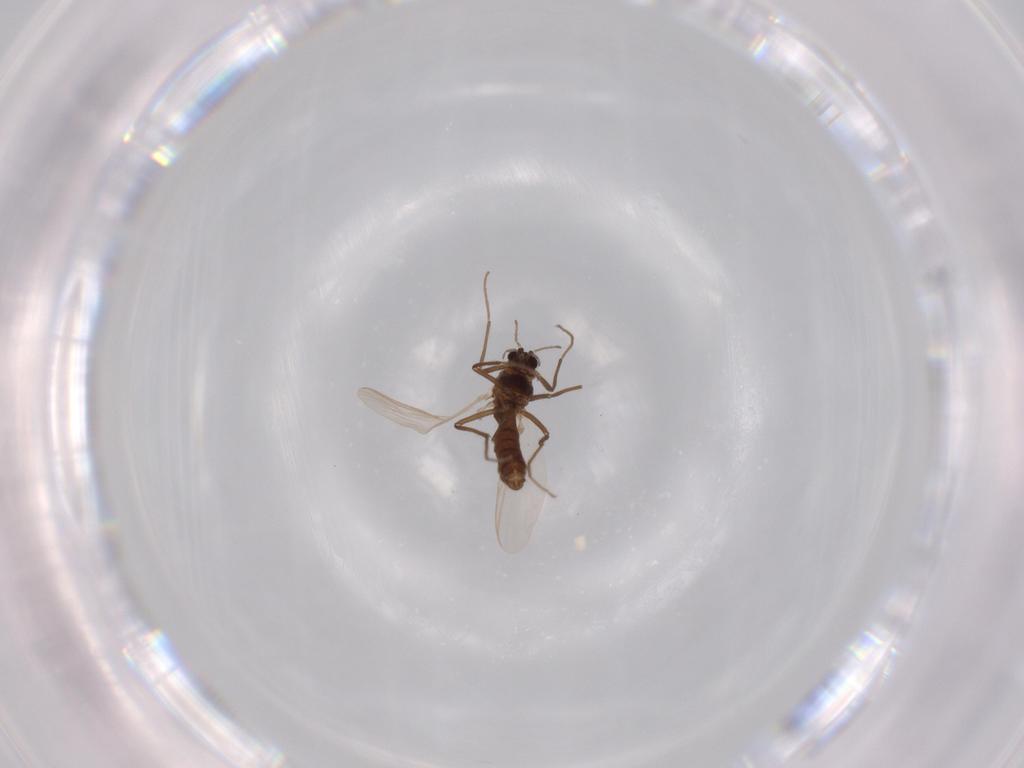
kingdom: Animalia
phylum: Arthropoda
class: Insecta
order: Diptera
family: Chironomidae
